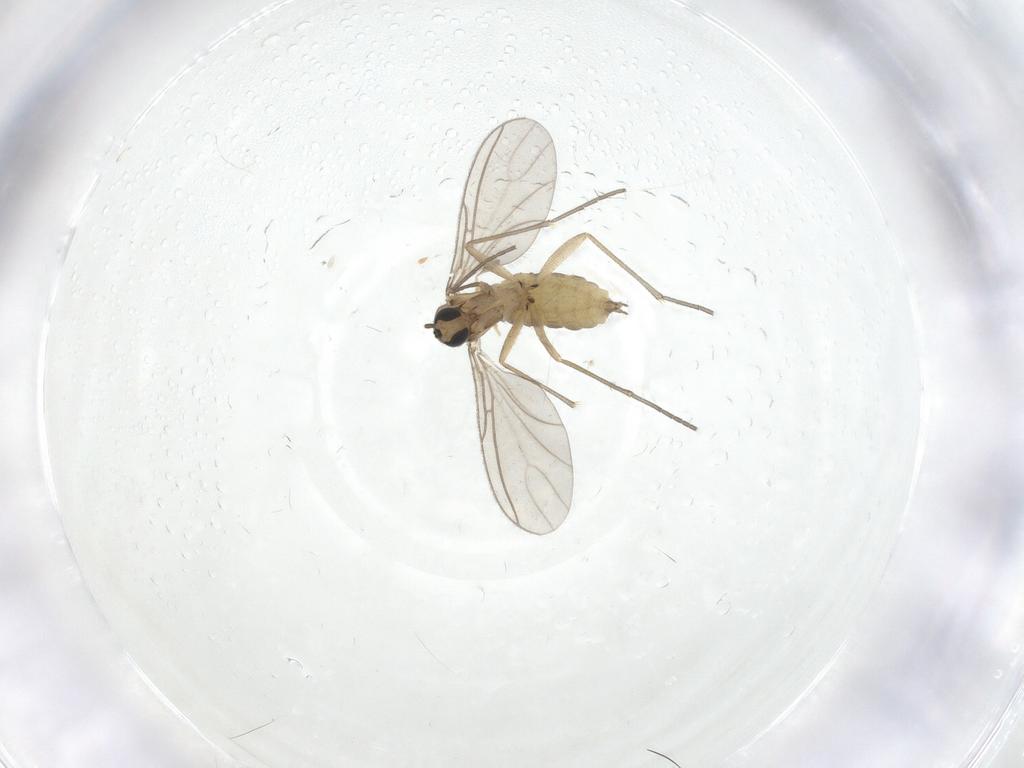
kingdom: Animalia
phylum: Arthropoda
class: Insecta
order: Diptera
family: Sciaridae
